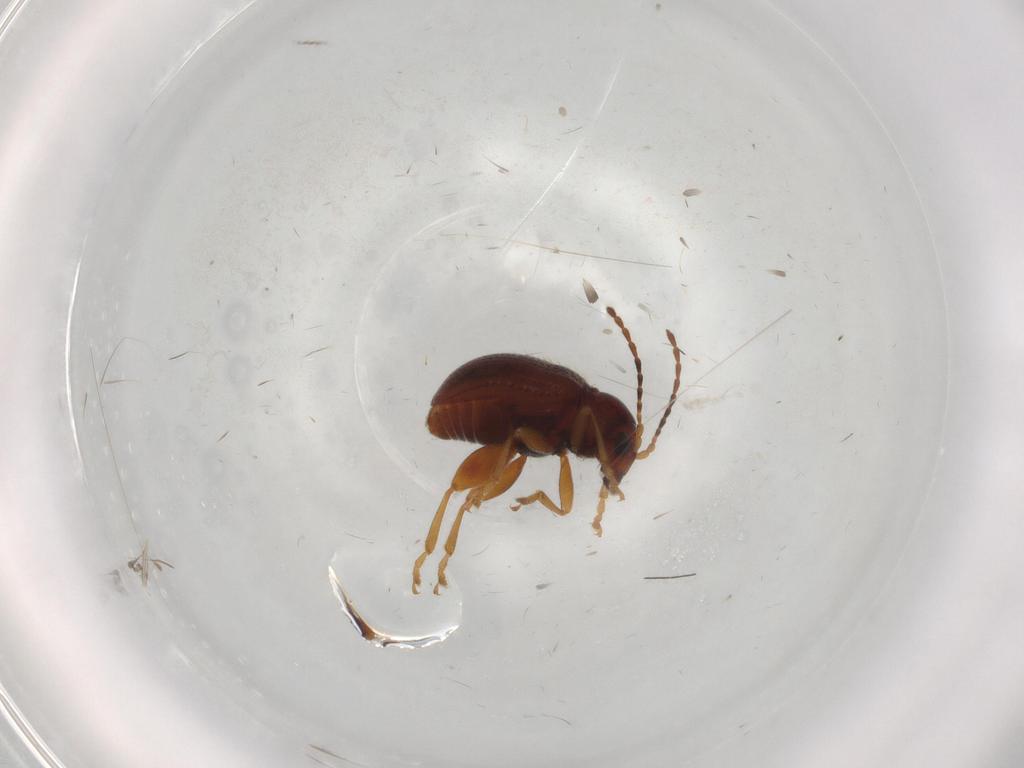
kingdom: Animalia
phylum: Arthropoda
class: Insecta
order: Coleoptera
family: Chrysomelidae
